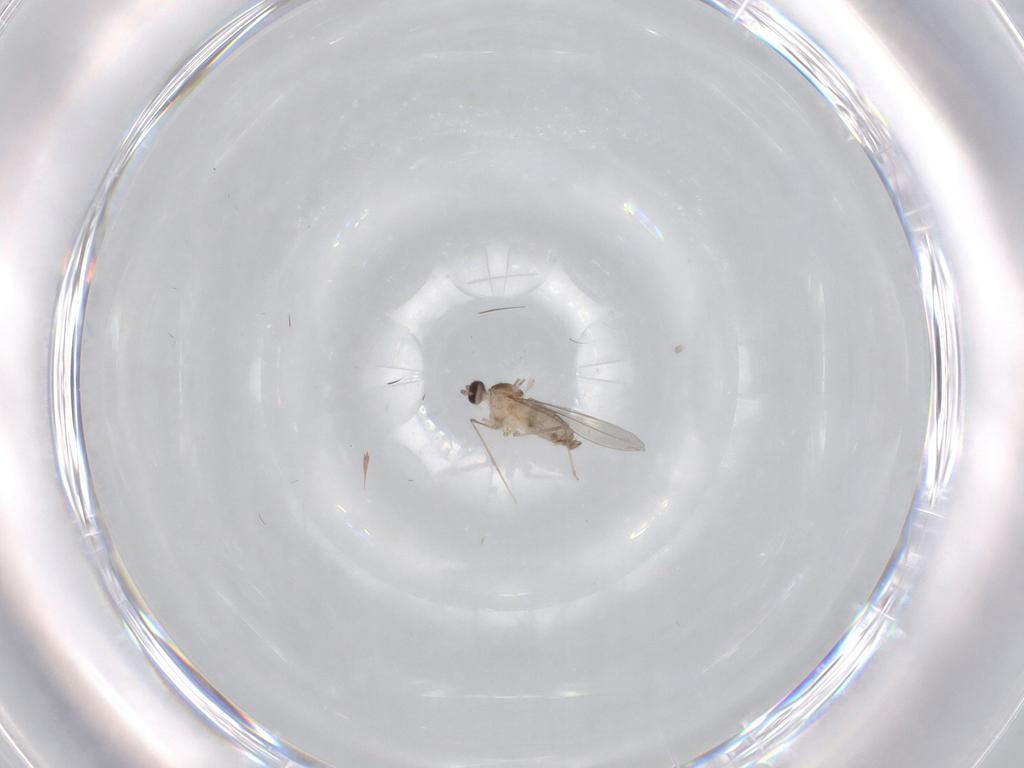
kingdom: Animalia
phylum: Arthropoda
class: Insecta
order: Diptera
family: Cecidomyiidae
